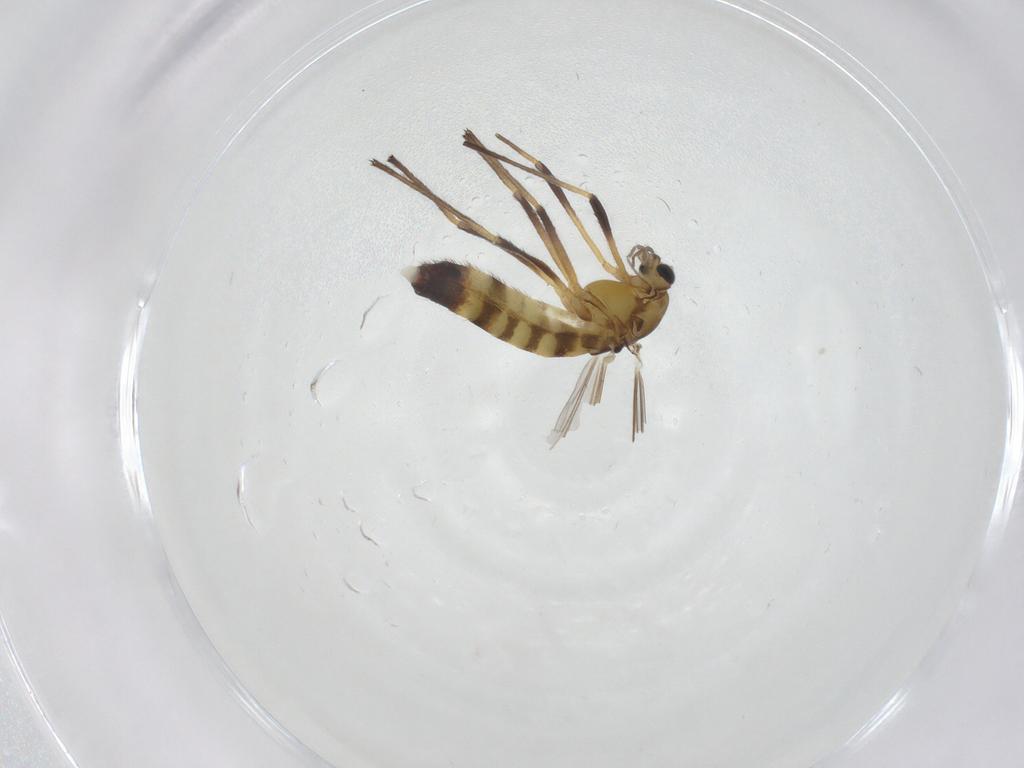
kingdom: Animalia
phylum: Arthropoda
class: Insecta
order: Diptera
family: Chironomidae
